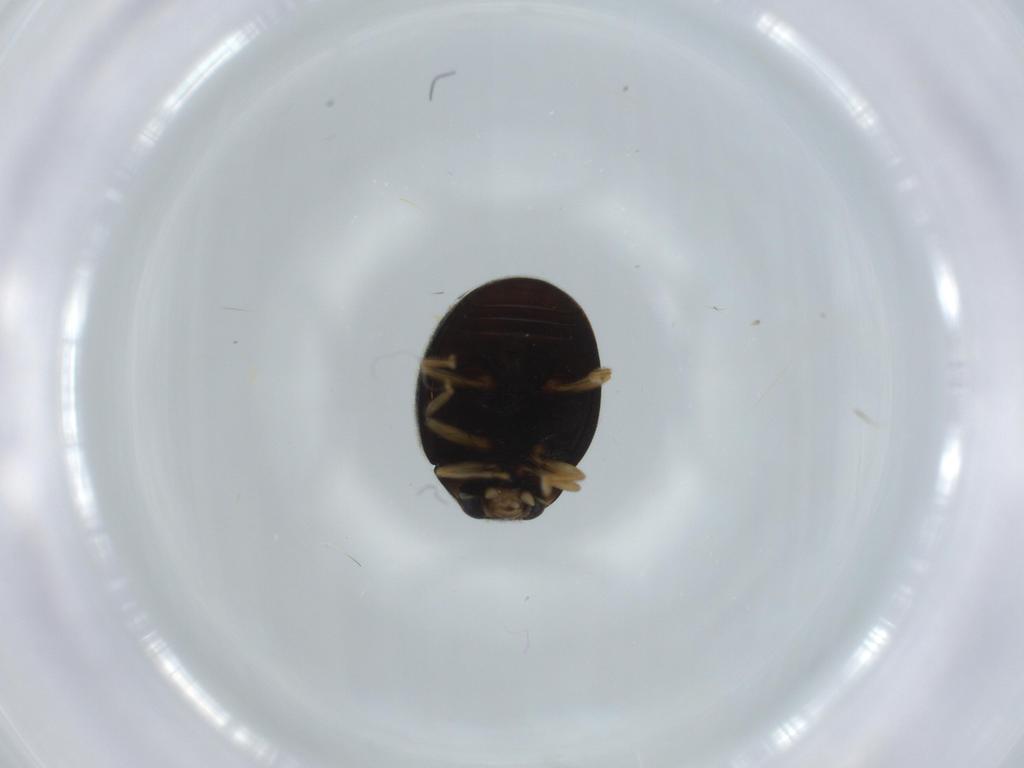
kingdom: Animalia
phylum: Arthropoda
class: Insecta
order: Coleoptera
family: Coccinellidae
